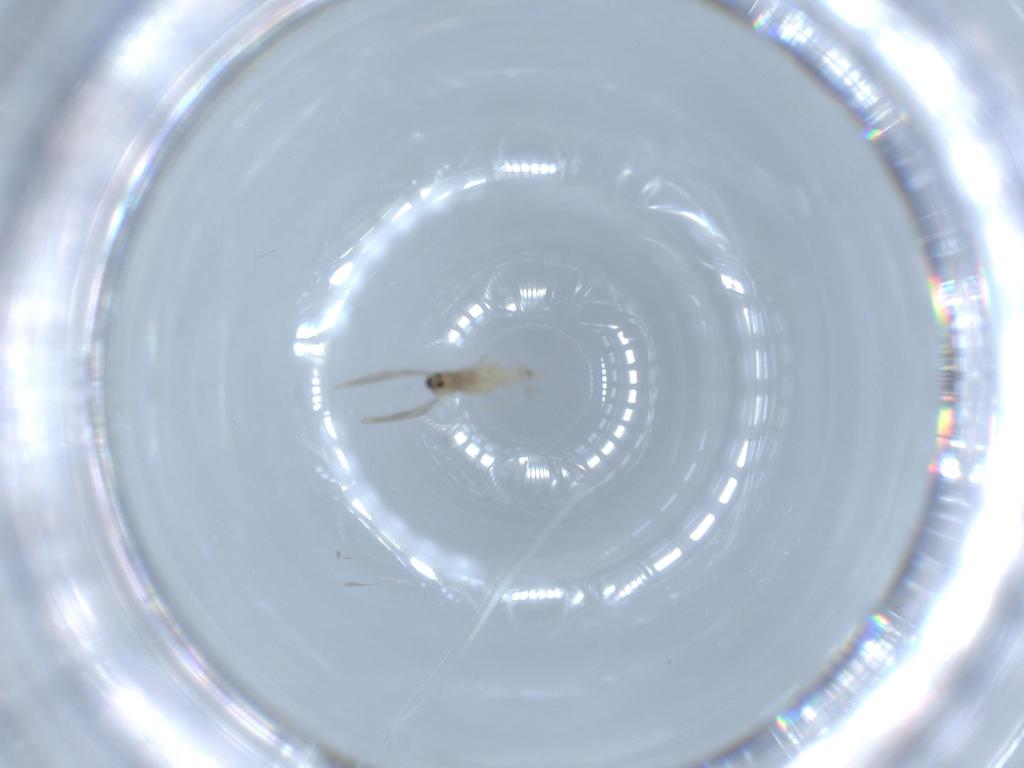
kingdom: Animalia
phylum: Arthropoda
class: Insecta
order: Diptera
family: Cecidomyiidae
